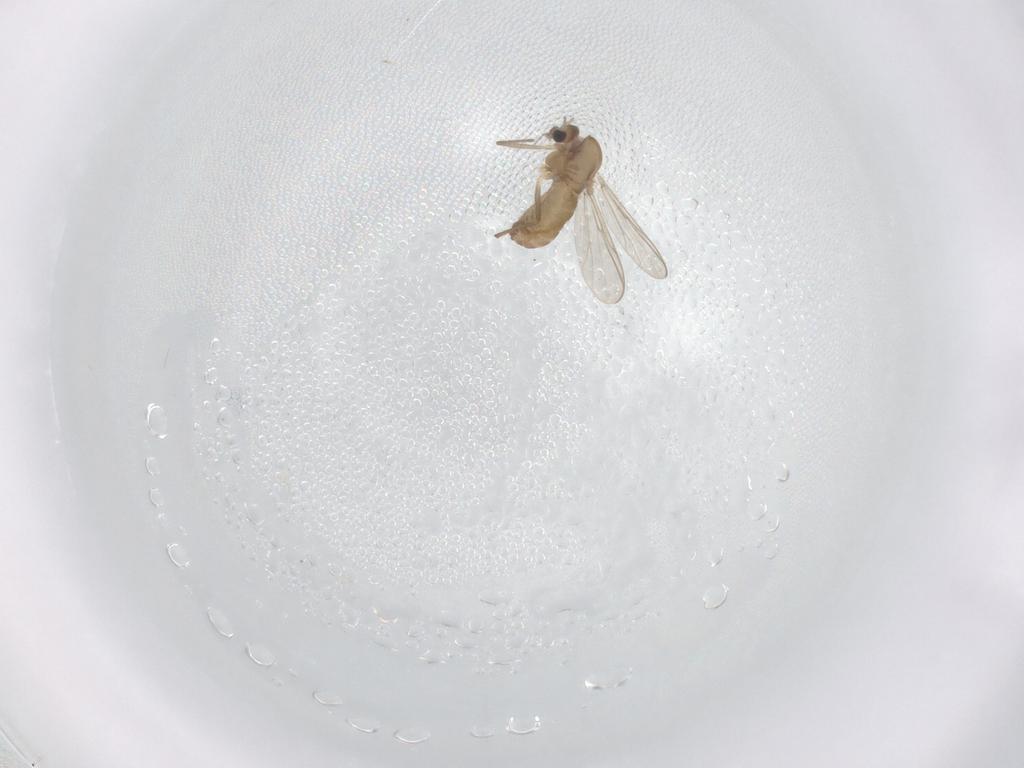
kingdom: Animalia
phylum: Arthropoda
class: Insecta
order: Diptera
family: Chironomidae
